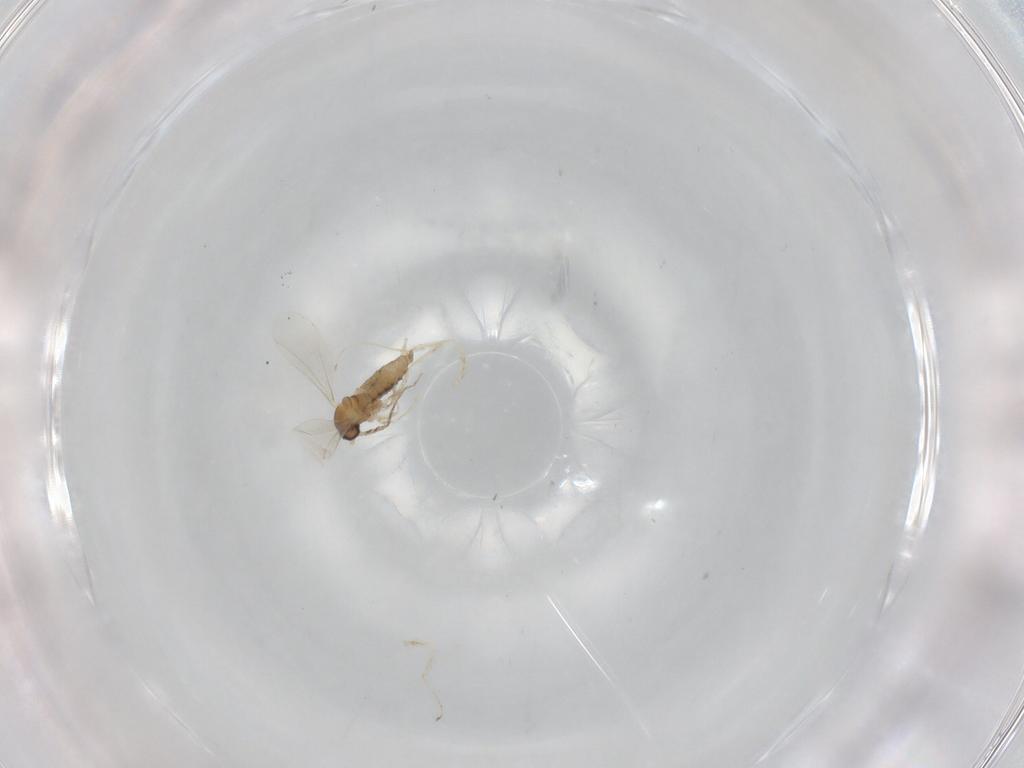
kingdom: Animalia
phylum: Arthropoda
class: Insecta
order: Diptera
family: Cecidomyiidae
